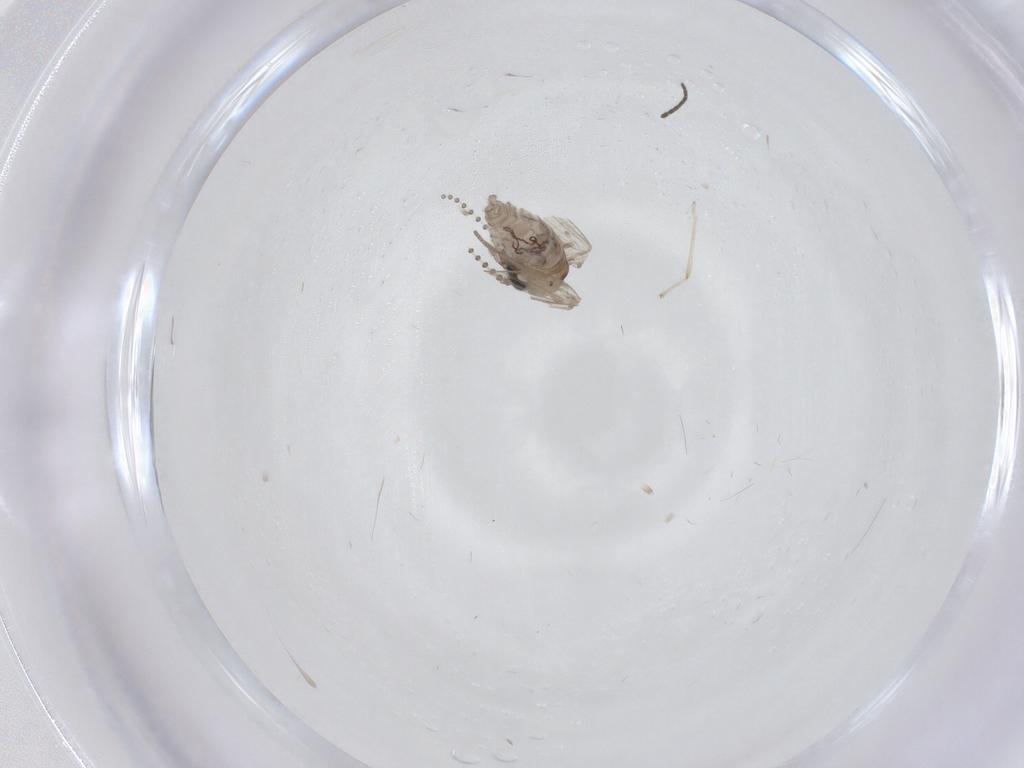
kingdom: Animalia
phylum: Arthropoda
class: Insecta
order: Diptera
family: Psychodidae
